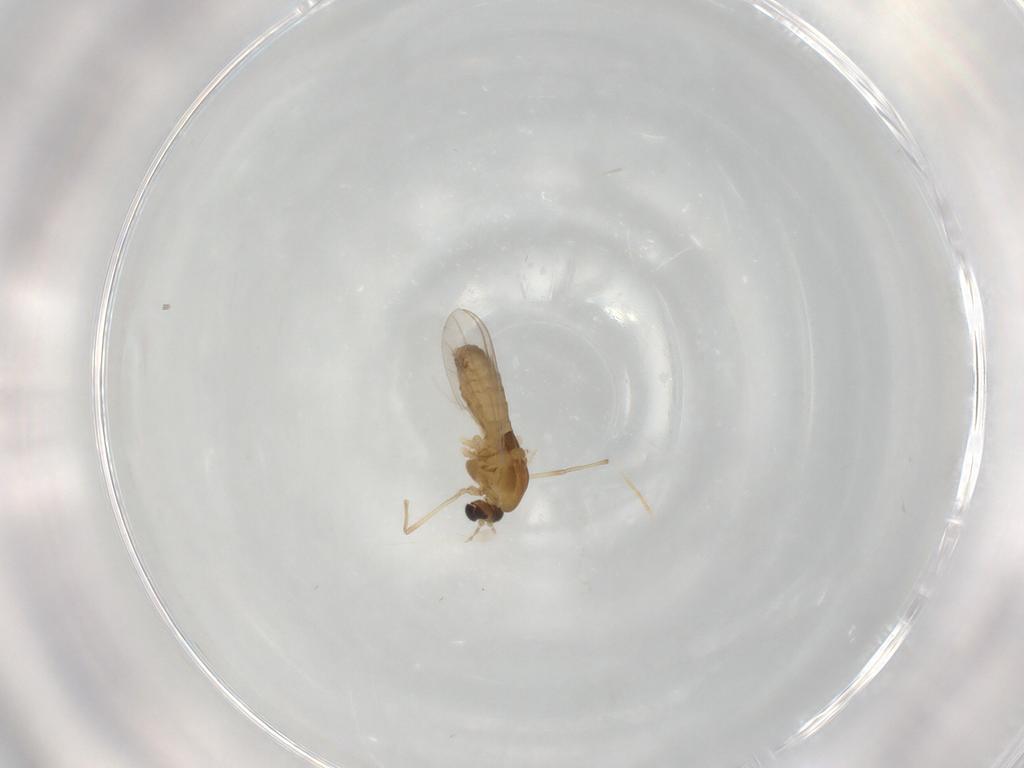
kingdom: Animalia
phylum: Arthropoda
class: Insecta
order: Diptera
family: Chironomidae
